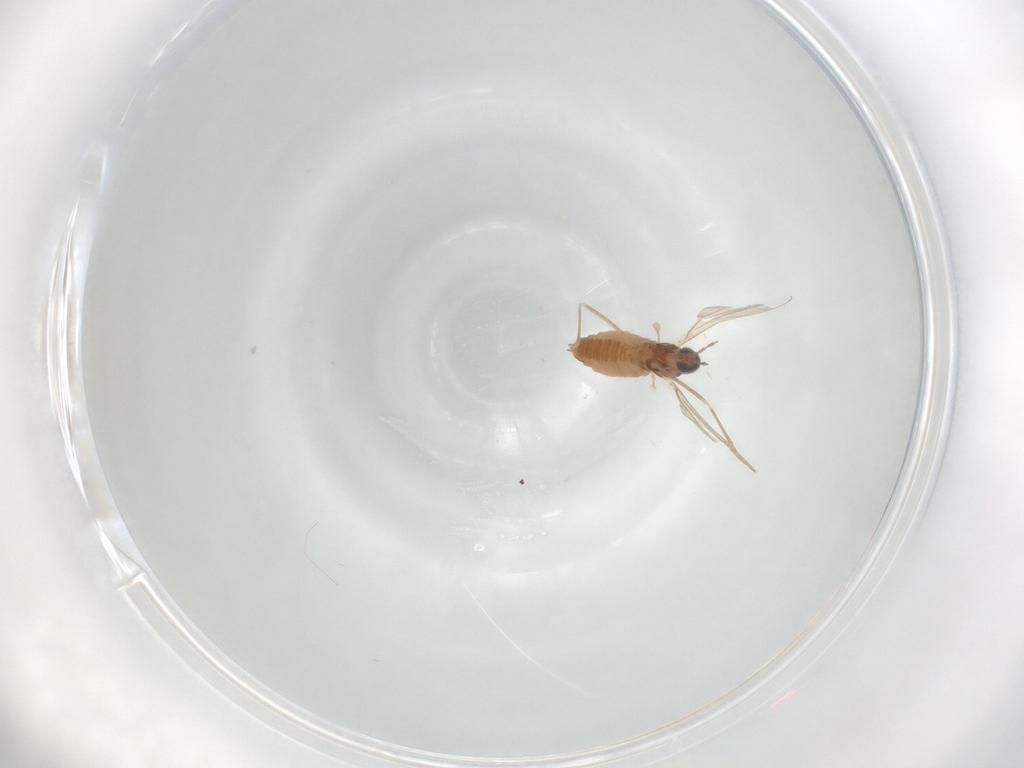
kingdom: Animalia
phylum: Arthropoda
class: Insecta
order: Diptera
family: Cecidomyiidae
